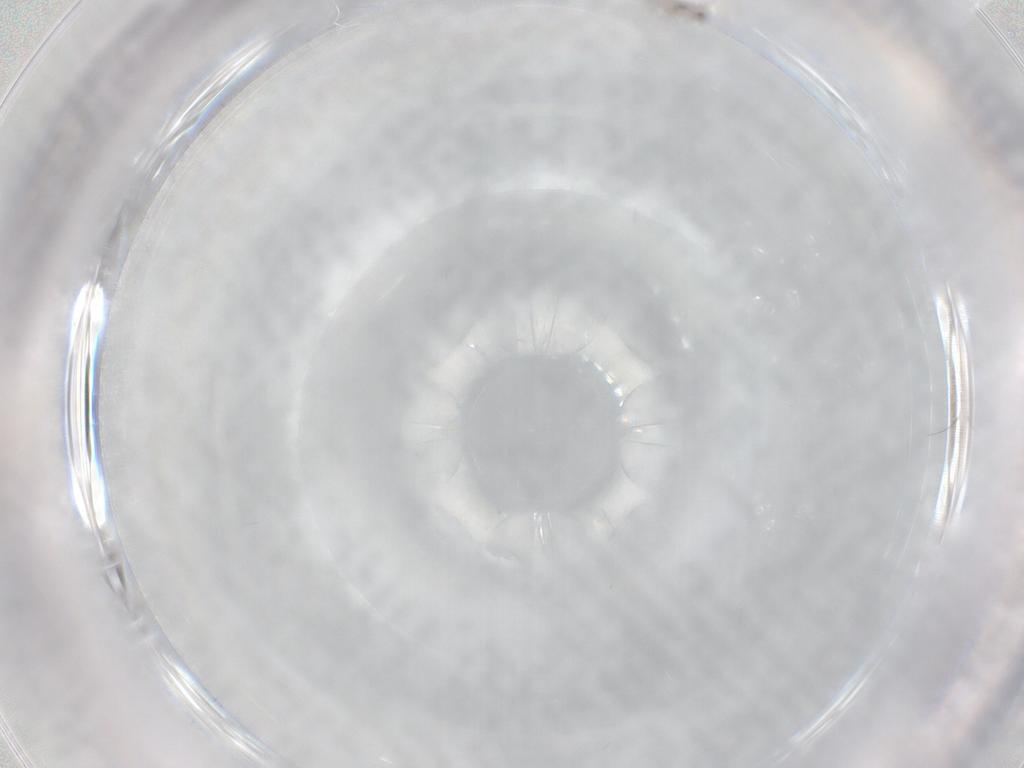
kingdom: Animalia
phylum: Arthropoda
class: Insecta
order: Hymenoptera
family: Mymaridae
